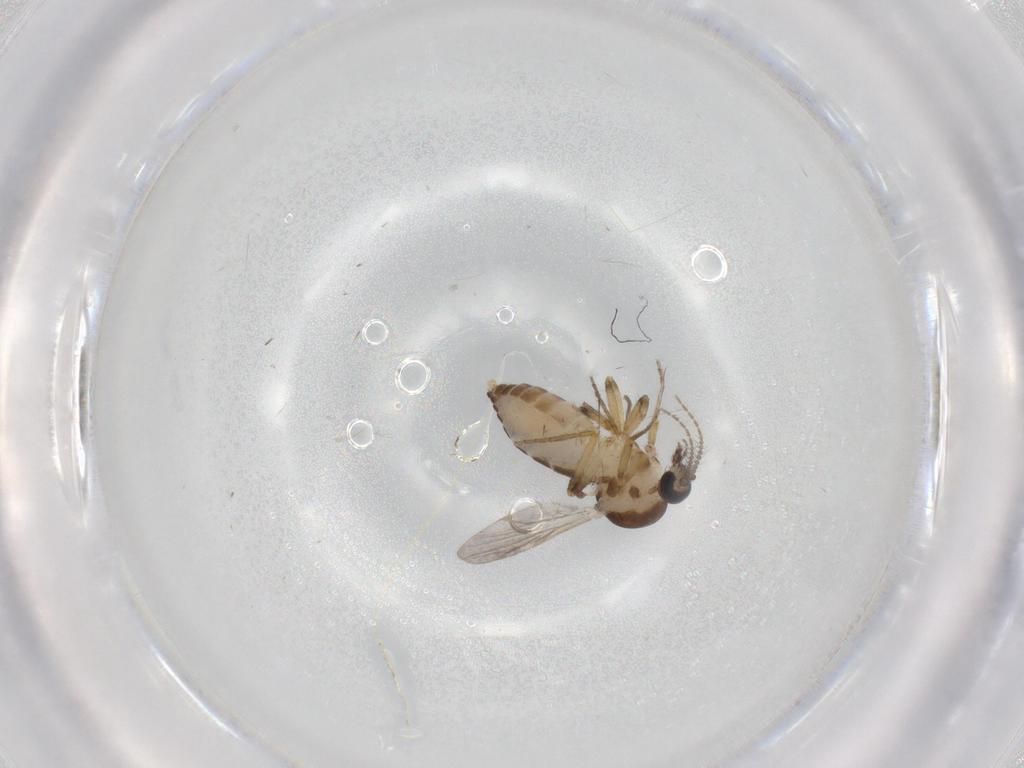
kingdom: Animalia
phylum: Arthropoda
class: Insecta
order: Diptera
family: Ceratopogonidae
